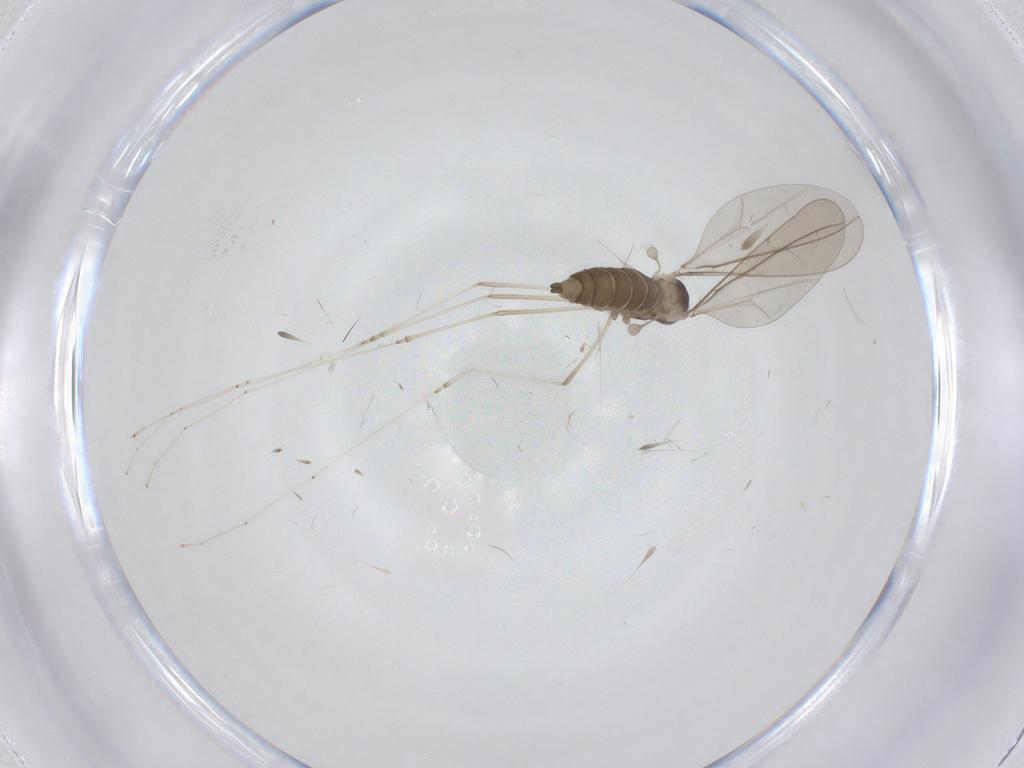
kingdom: Animalia
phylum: Arthropoda
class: Insecta
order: Diptera
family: Cecidomyiidae
